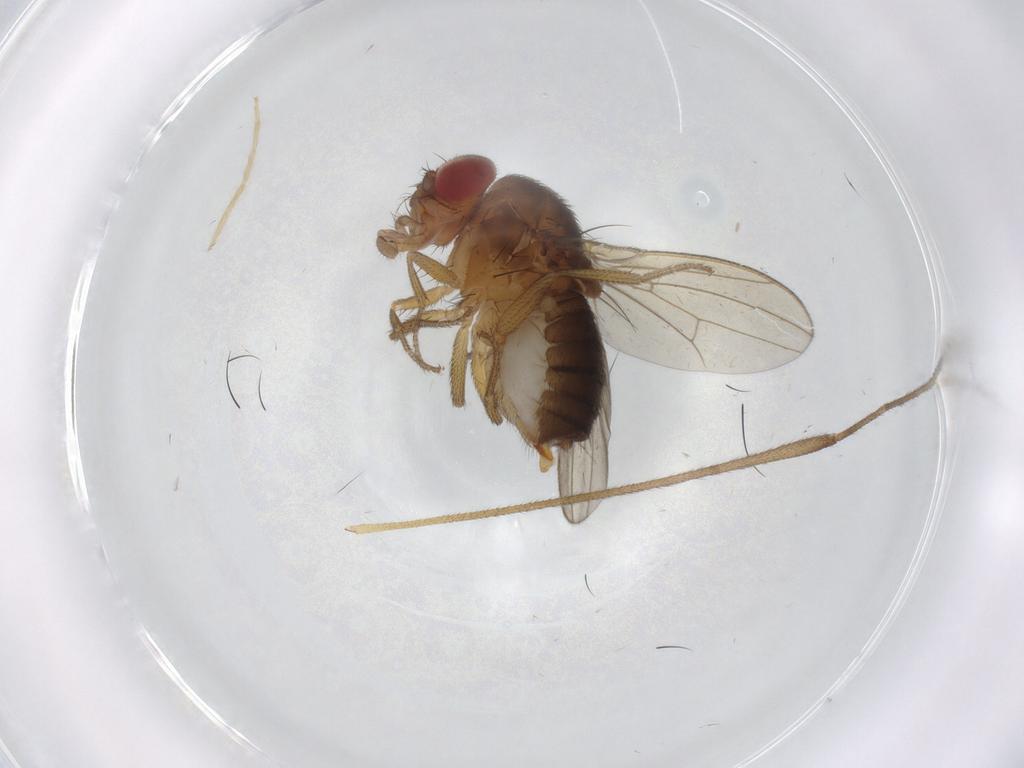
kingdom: Animalia
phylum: Arthropoda
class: Insecta
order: Diptera
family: Drosophilidae
